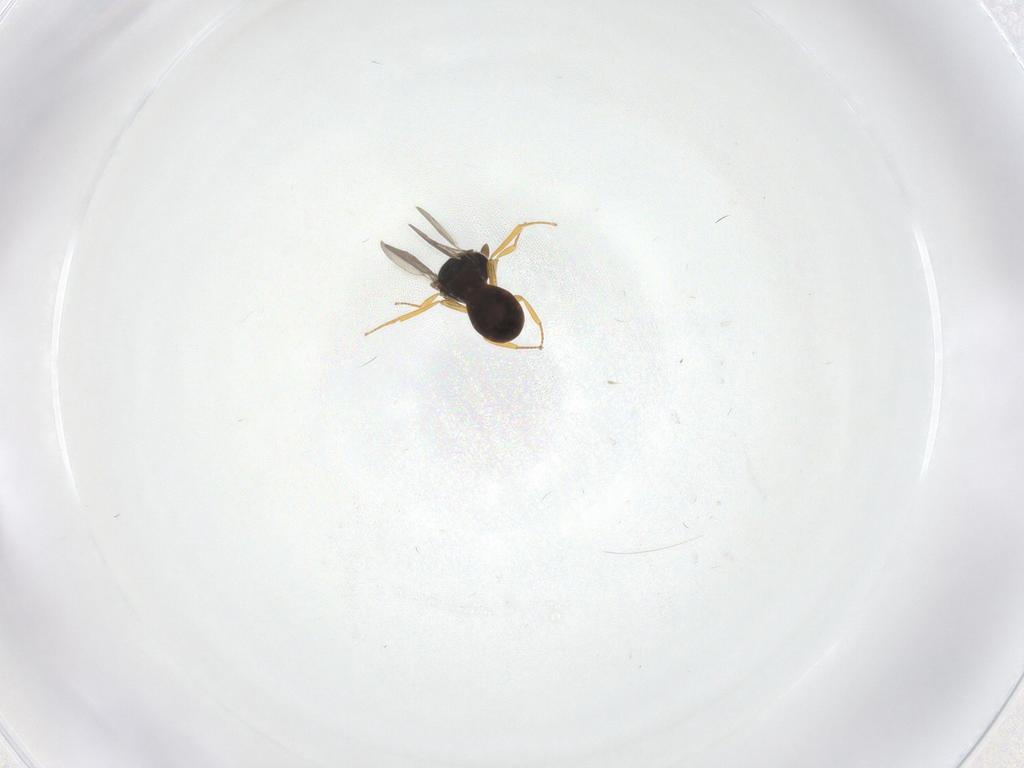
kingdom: Animalia
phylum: Arthropoda
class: Insecta
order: Hymenoptera
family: Scelionidae
